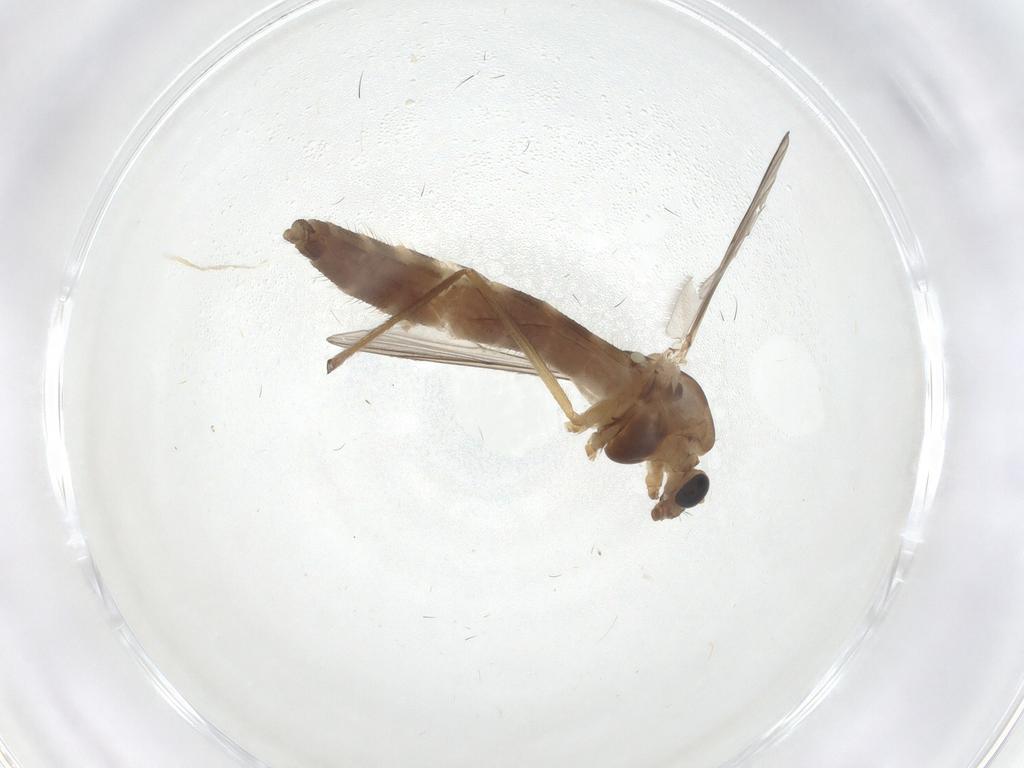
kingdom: Animalia
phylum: Arthropoda
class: Insecta
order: Diptera
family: Chironomidae
